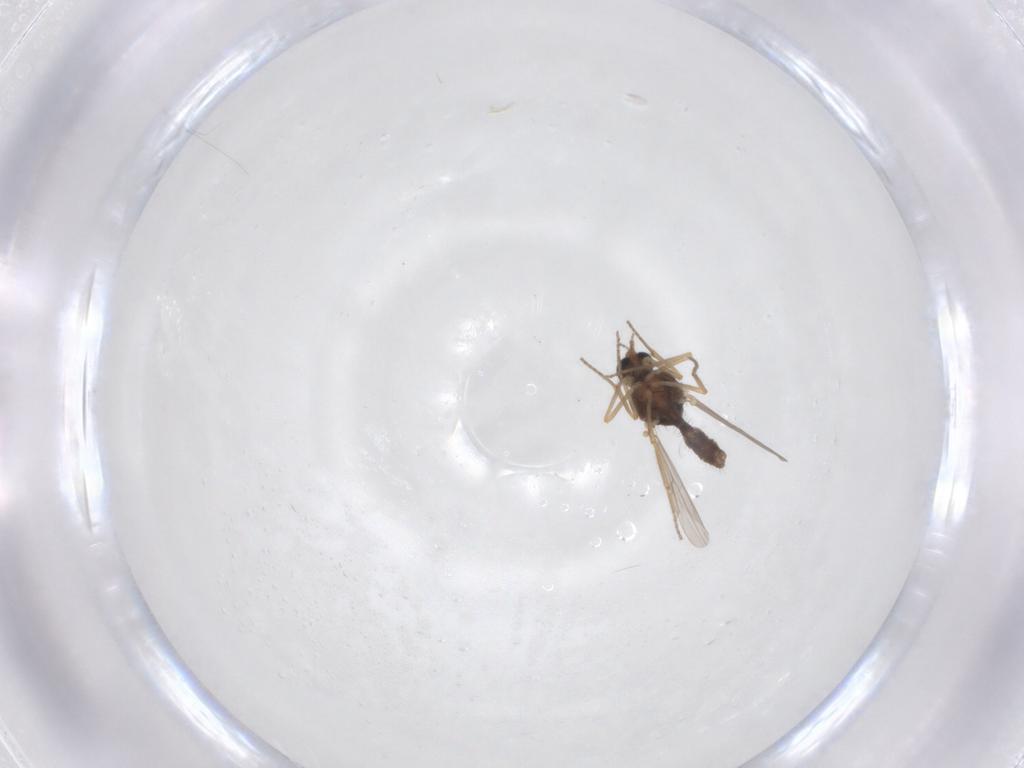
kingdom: Animalia
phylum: Arthropoda
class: Insecta
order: Diptera
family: Ceratopogonidae
